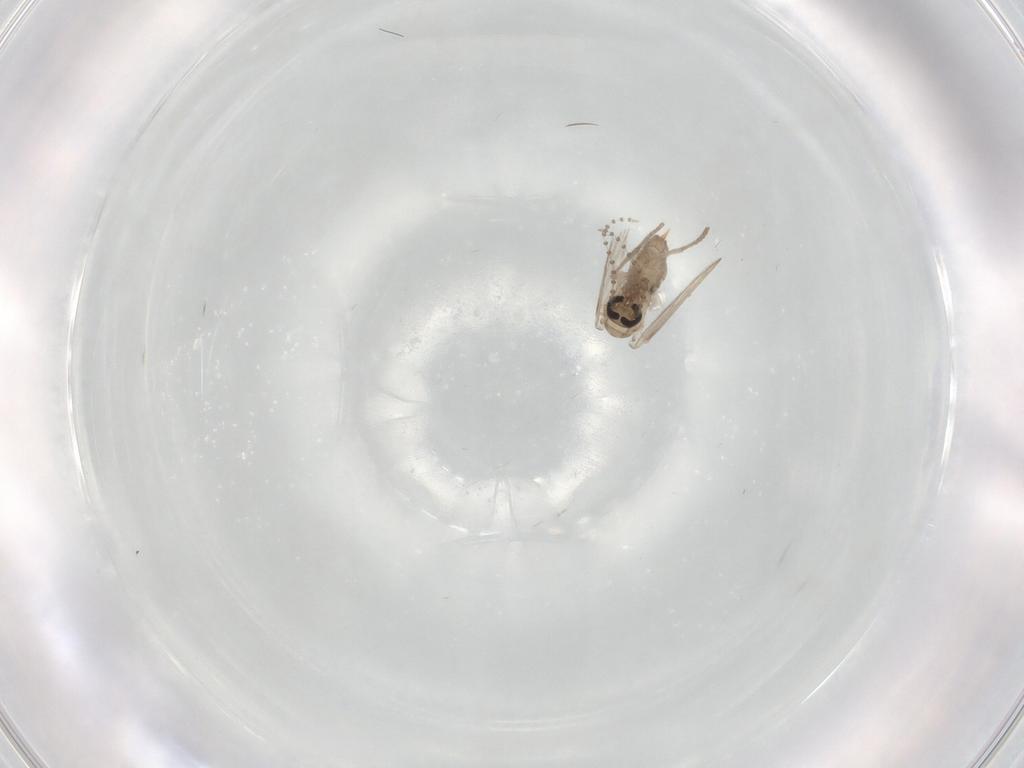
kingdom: Animalia
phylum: Arthropoda
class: Insecta
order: Diptera
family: Psychodidae
